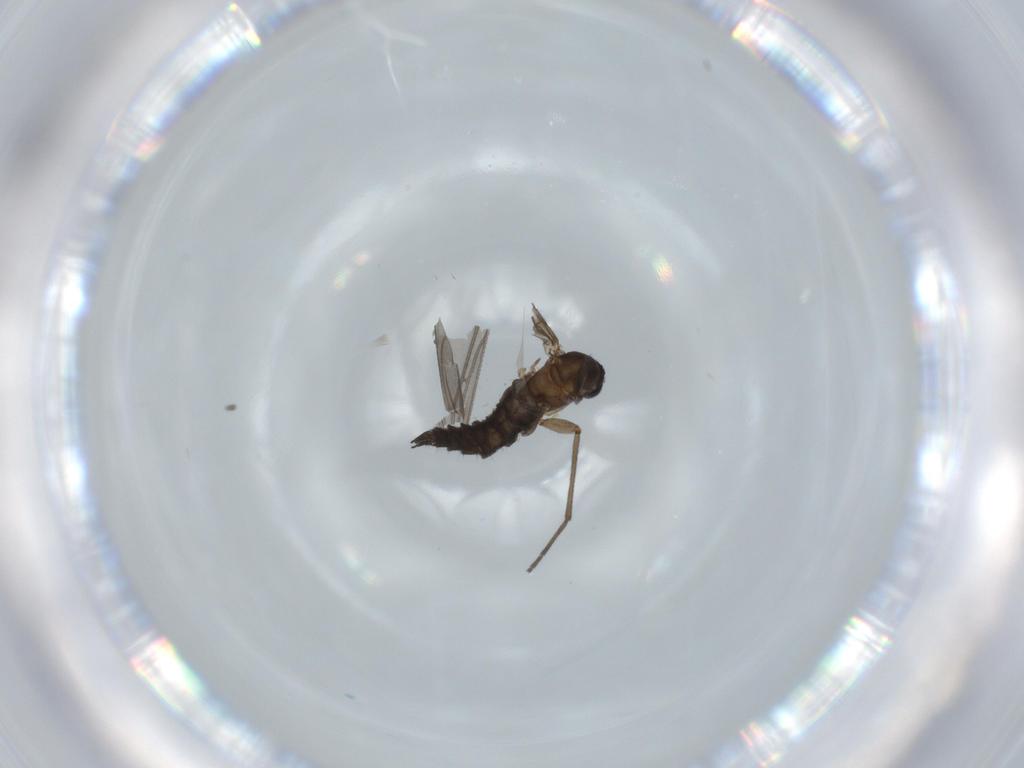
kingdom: Animalia
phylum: Arthropoda
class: Insecta
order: Diptera
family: Sciaridae
